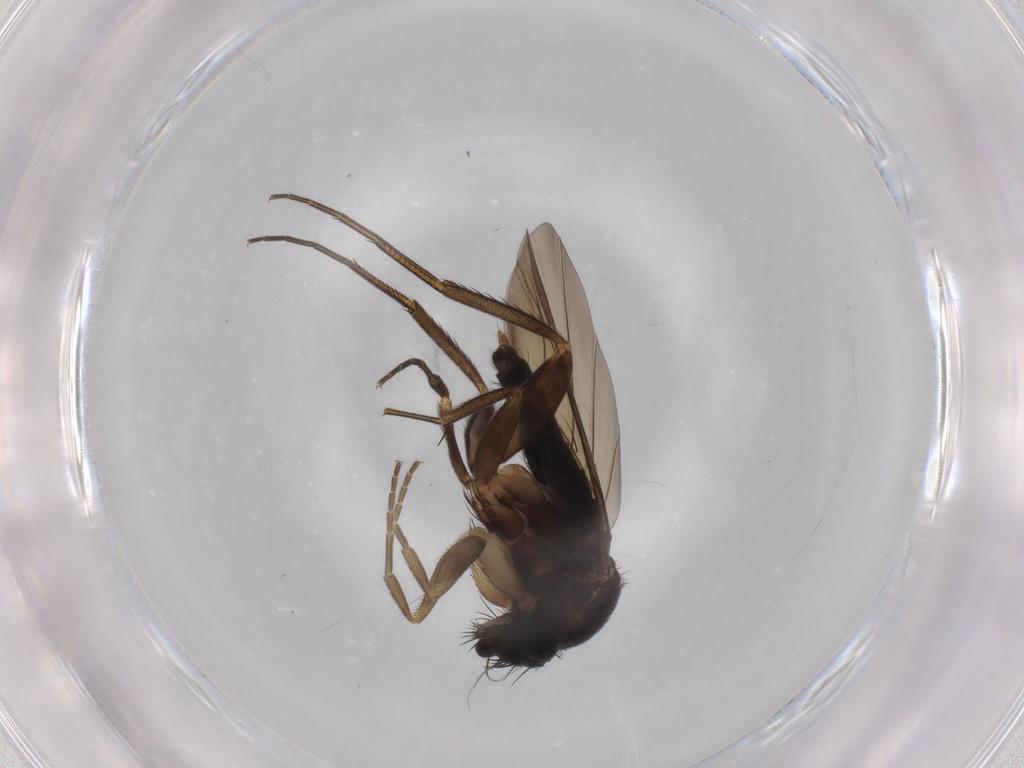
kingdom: Animalia
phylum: Arthropoda
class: Insecta
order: Diptera
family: Phoridae
